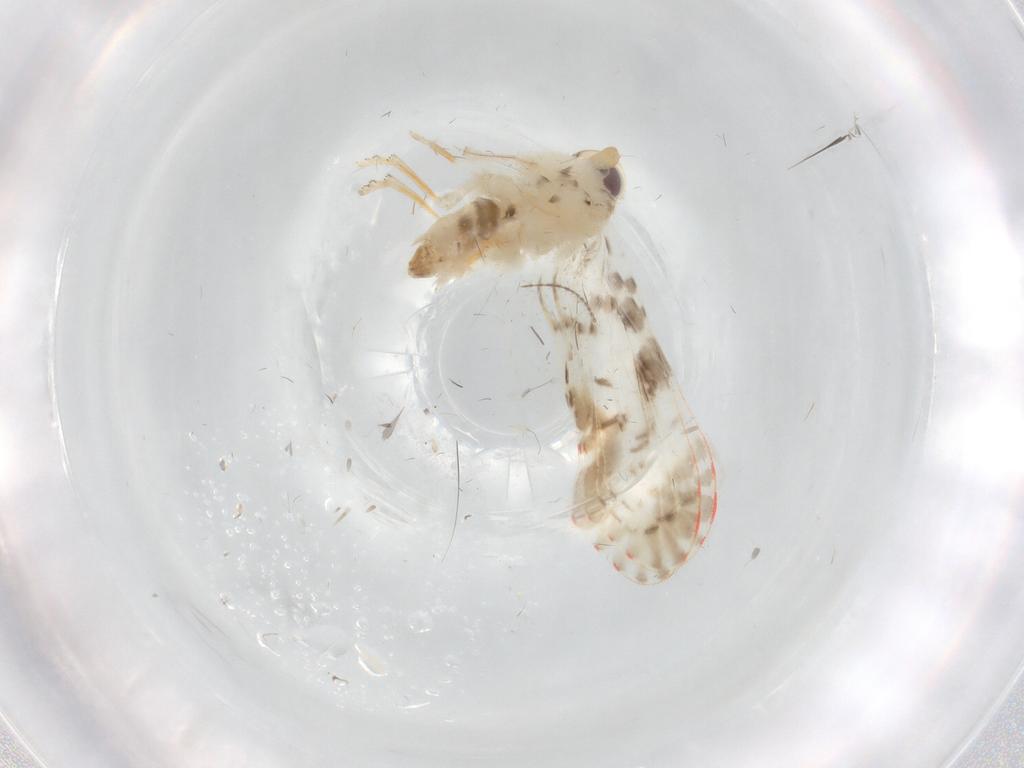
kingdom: Animalia
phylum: Arthropoda
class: Insecta
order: Hemiptera
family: Derbidae
